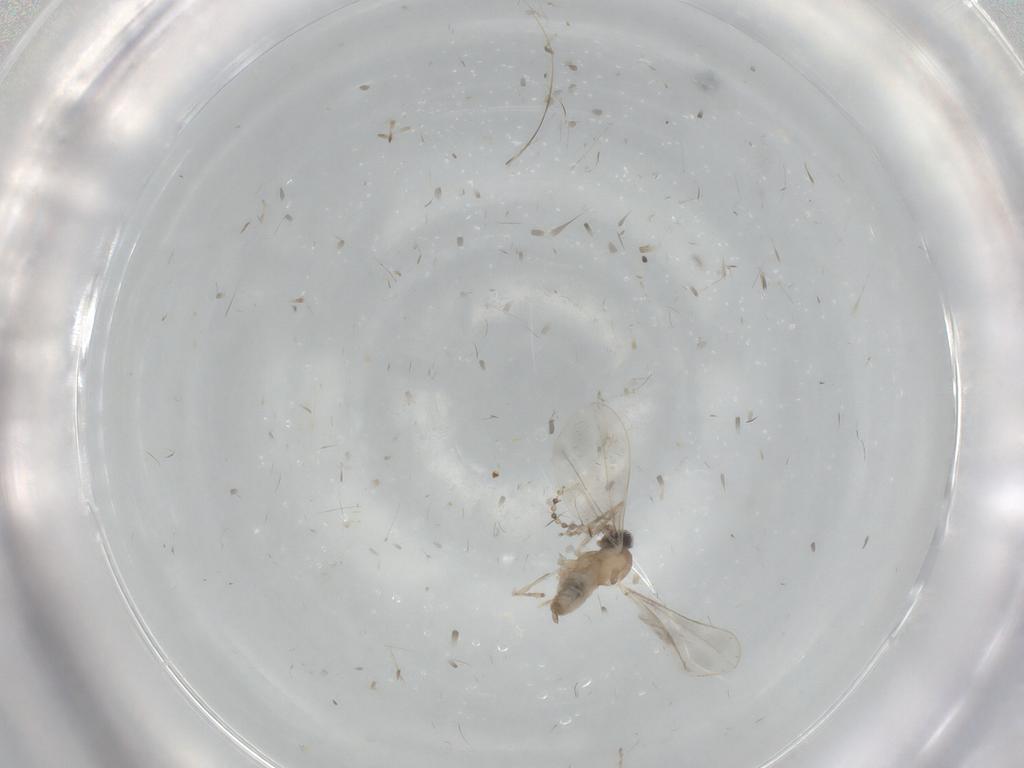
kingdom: Animalia
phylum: Arthropoda
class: Insecta
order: Diptera
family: Cecidomyiidae
